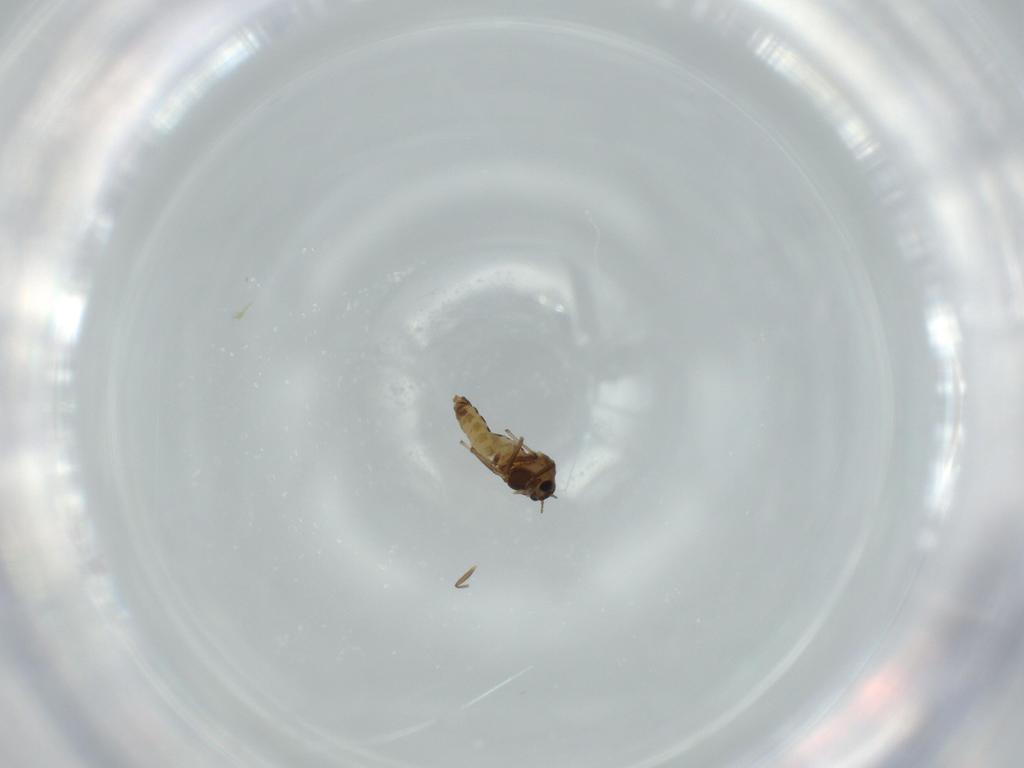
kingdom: Animalia
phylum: Arthropoda
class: Insecta
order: Diptera
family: Chironomidae
